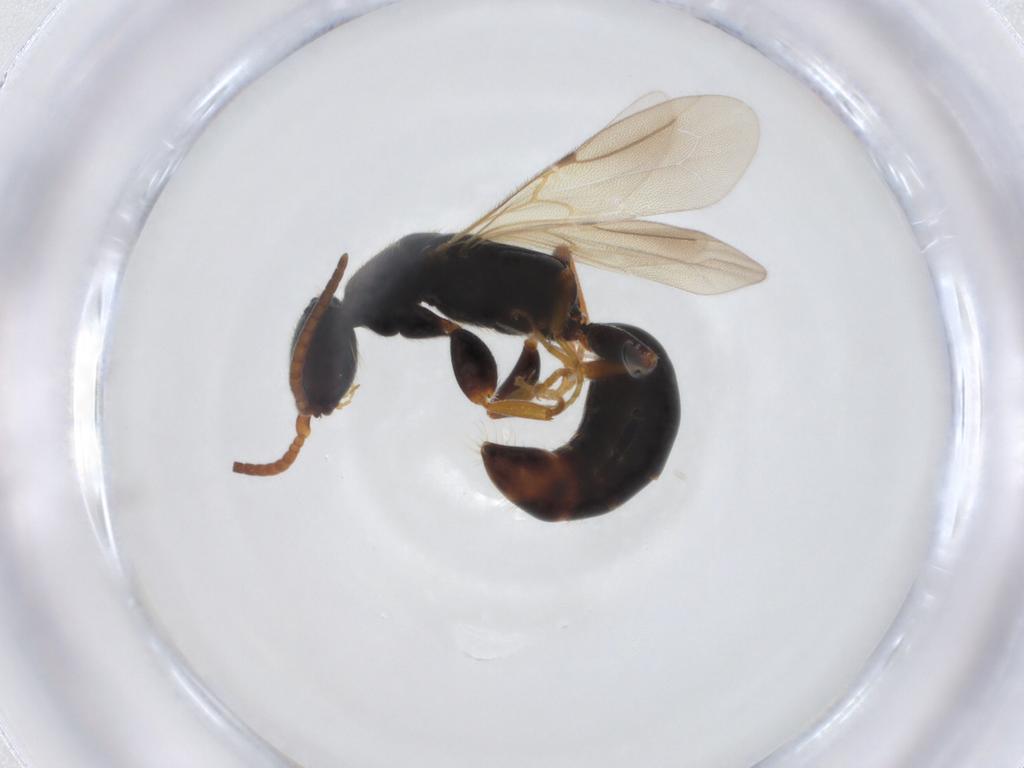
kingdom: Animalia
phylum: Arthropoda
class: Insecta
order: Hymenoptera
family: Bethylidae
